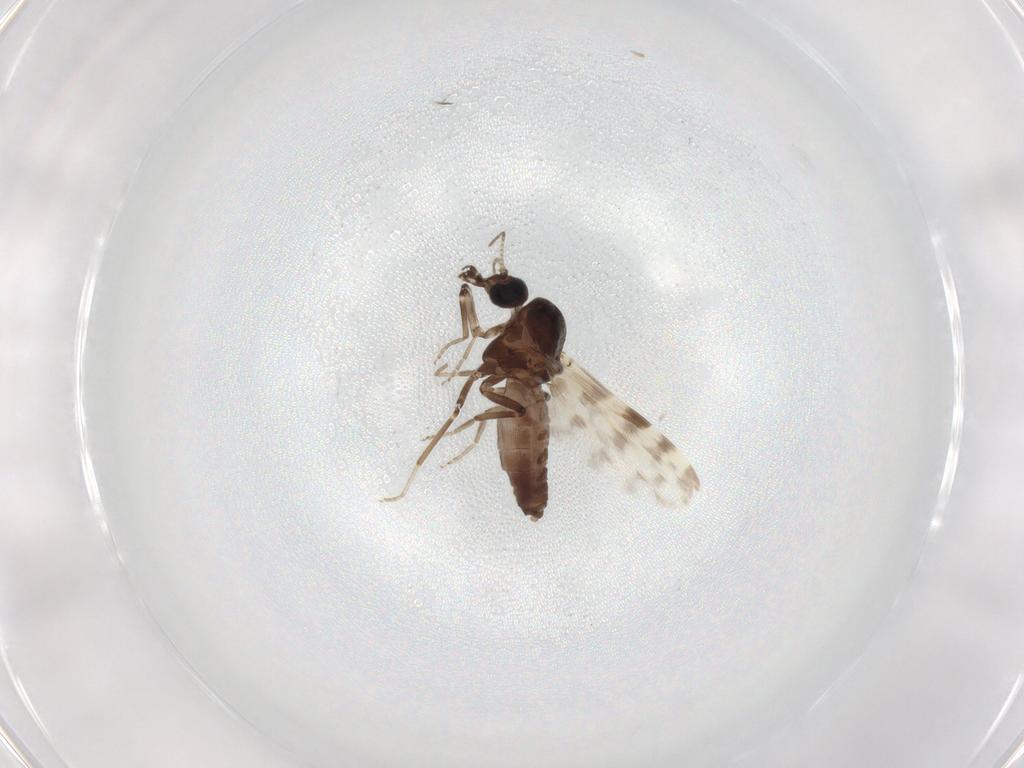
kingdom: Animalia
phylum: Arthropoda
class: Insecta
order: Diptera
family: Ceratopogonidae
